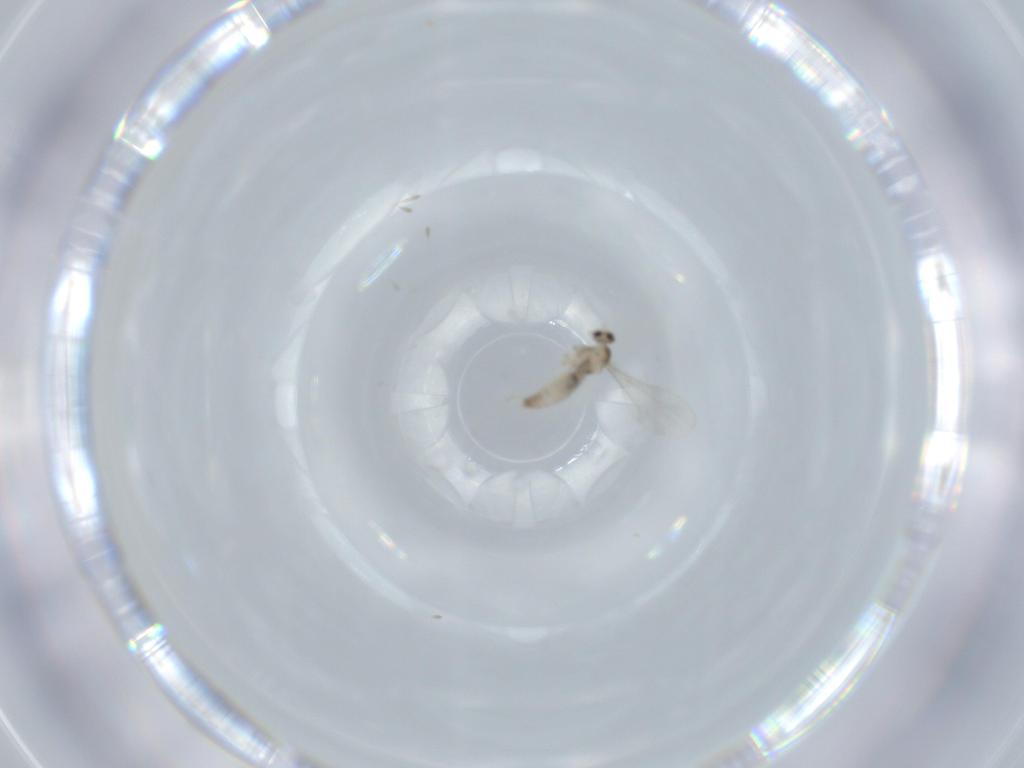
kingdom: Animalia
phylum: Arthropoda
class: Insecta
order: Diptera
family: Cecidomyiidae
